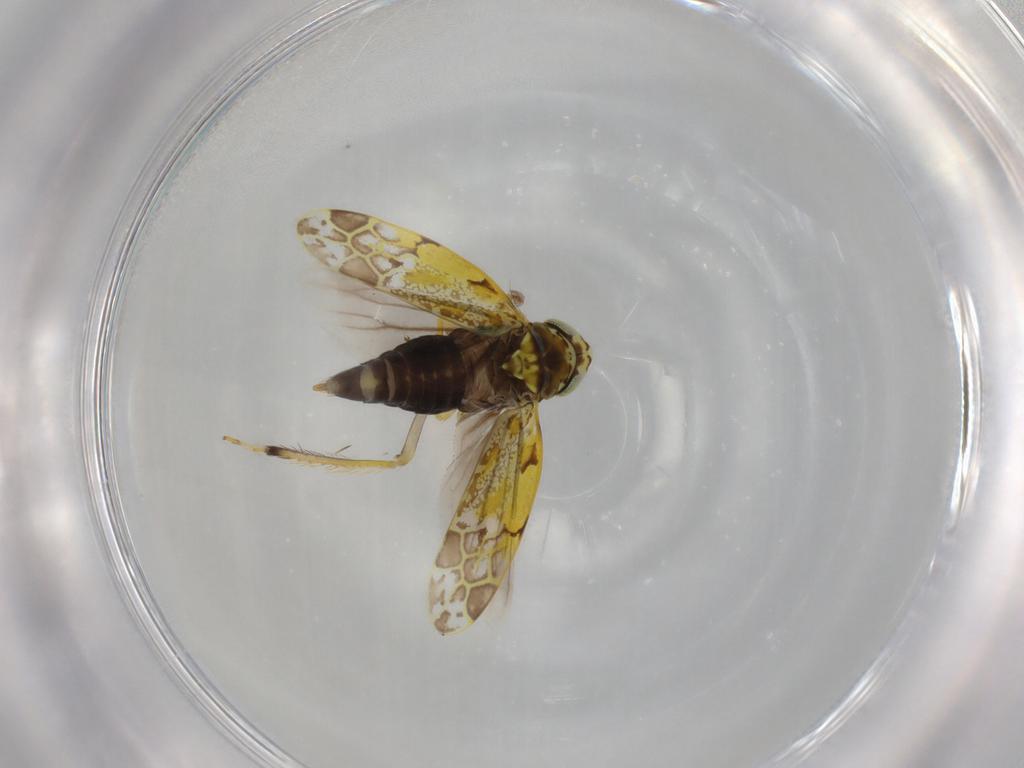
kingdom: Animalia
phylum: Arthropoda
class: Insecta
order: Hemiptera
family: Cicadellidae
